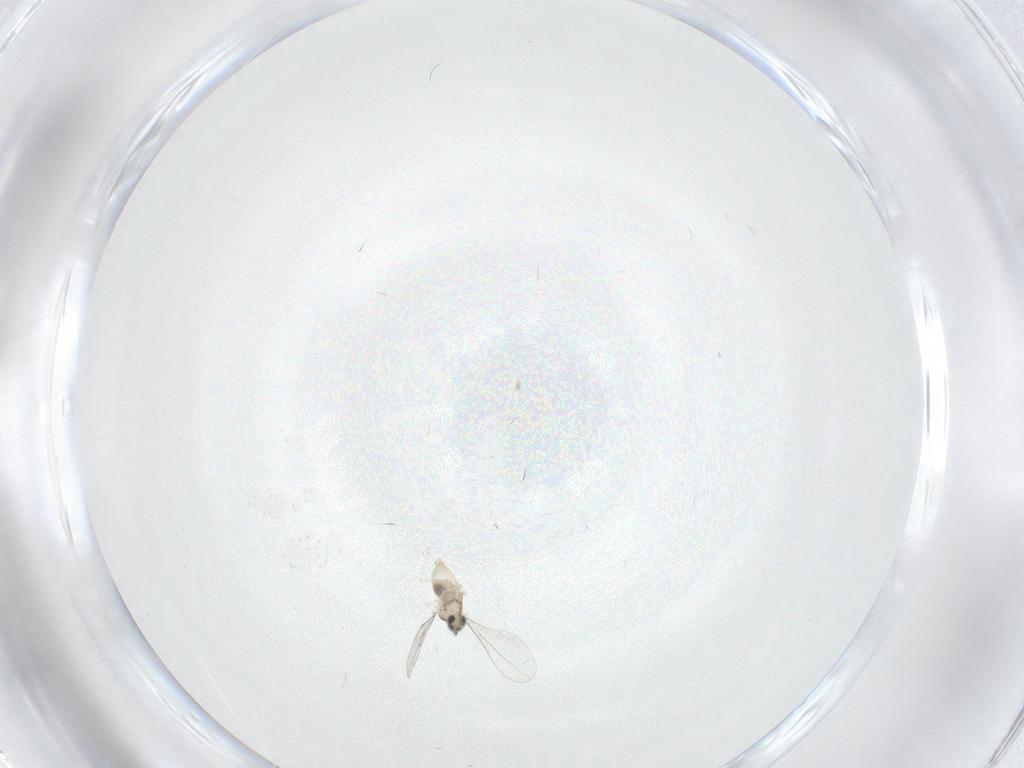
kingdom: Animalia
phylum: Arthropoda
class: Insecta
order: Diptera
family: Cecidomyiidae
